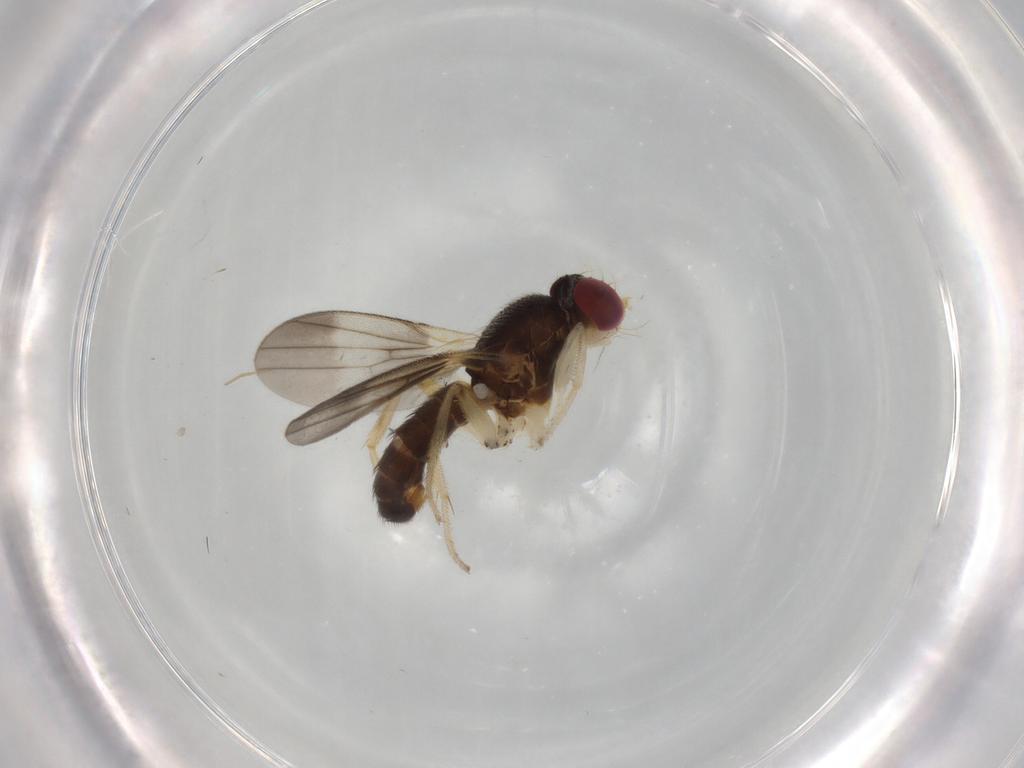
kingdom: Animalia
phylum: Arthropoda
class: Insecta
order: Diptera
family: Clusiidae
